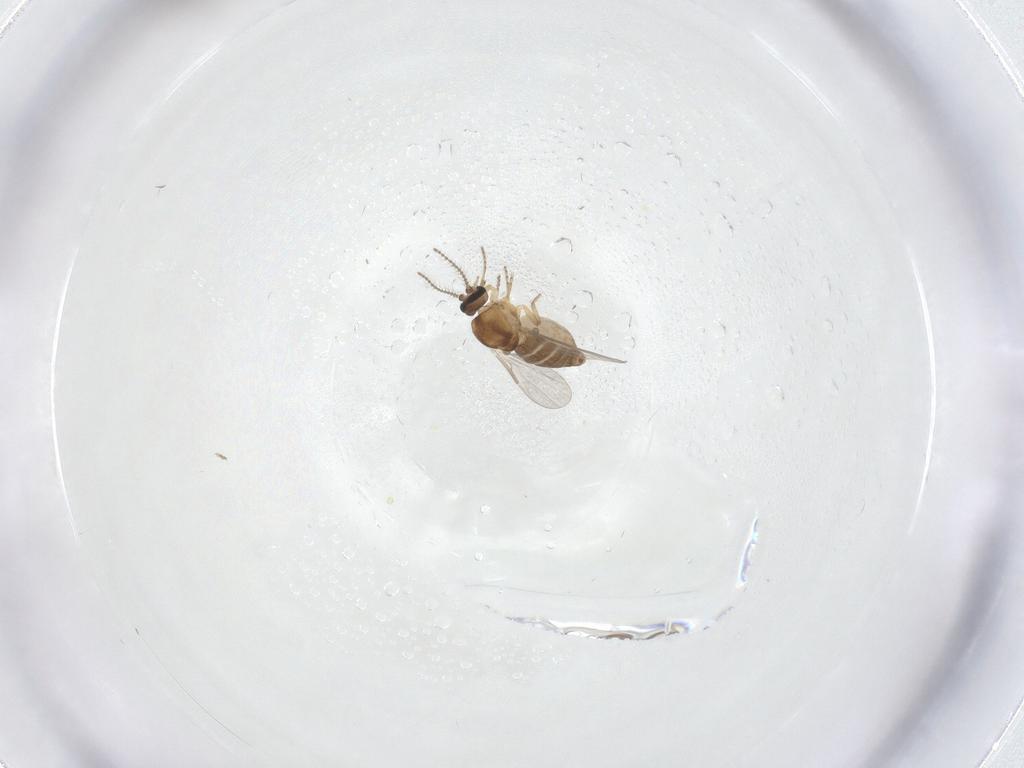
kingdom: Animalia
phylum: Arthropoda
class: Insecta
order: Diptera
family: Ceratopogonidae
